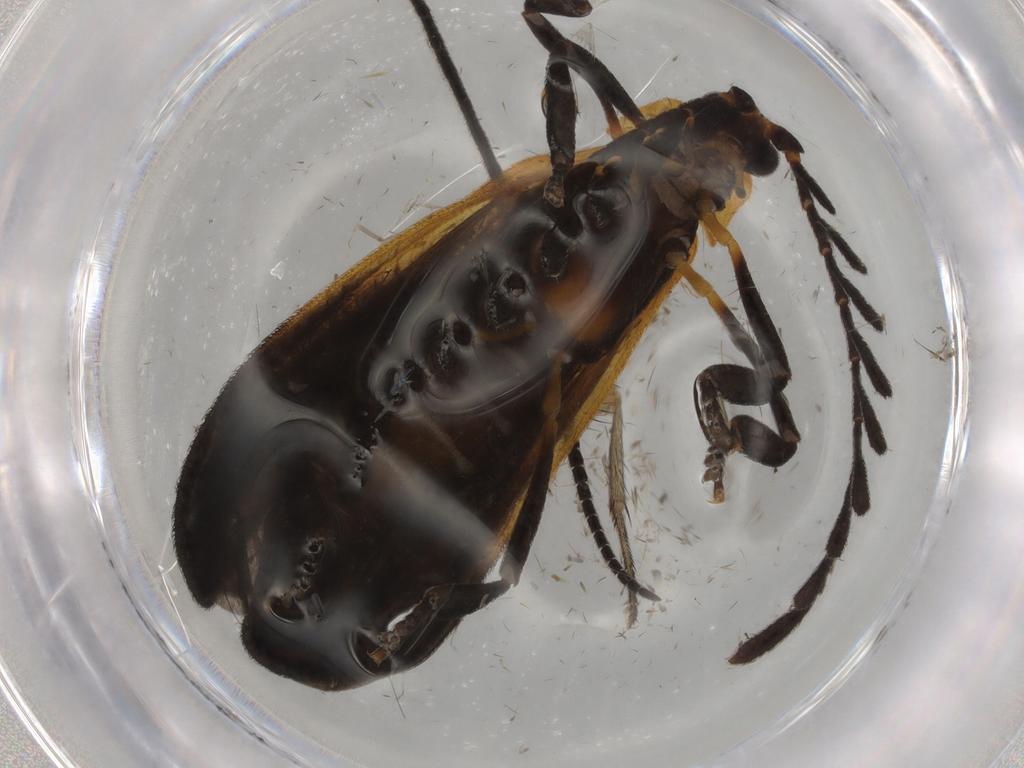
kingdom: Animalia
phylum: Arthropoda
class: Insecta
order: Coleoptera
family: Lycidae
